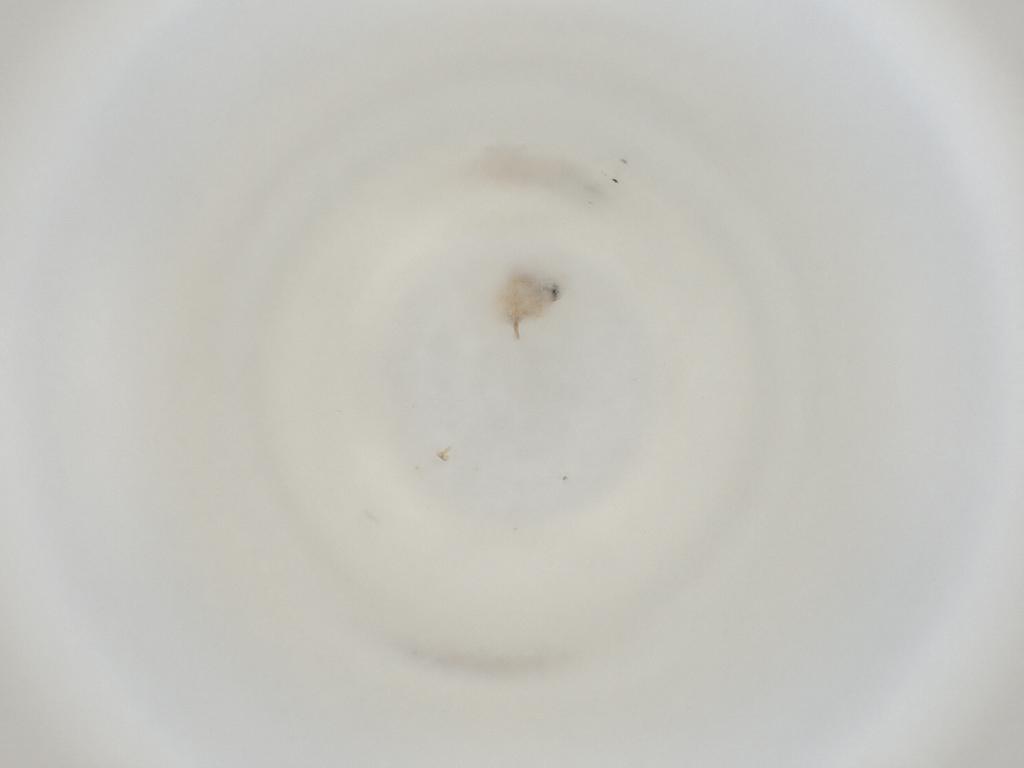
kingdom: Animalia
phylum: Arthropoda
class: Insecta
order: Diptera
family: Cecidomyiidae
